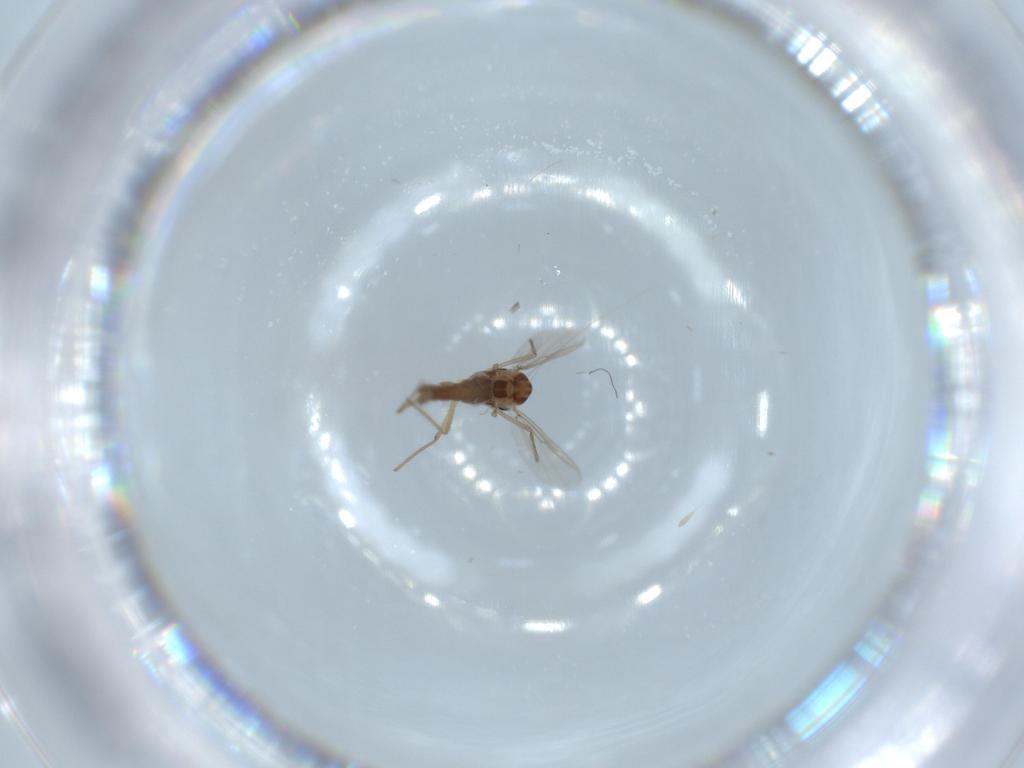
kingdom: Animalia
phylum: Arthropoda
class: Insecta
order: Diptera
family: Chironomidae
